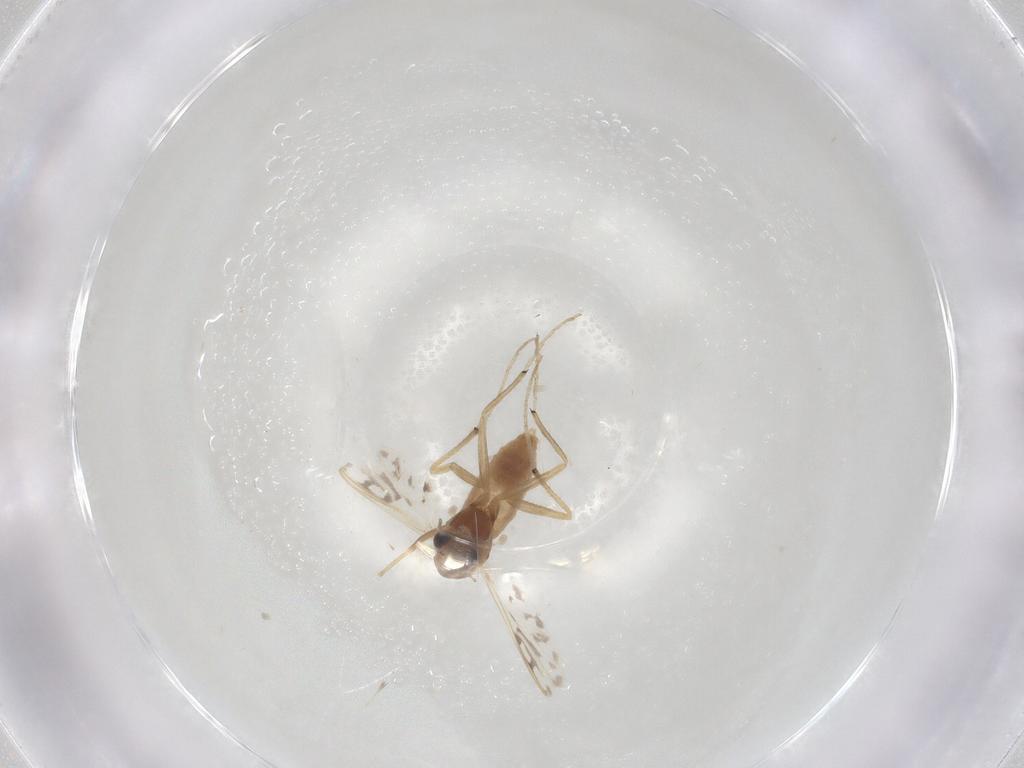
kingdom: Animalia
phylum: Arthropoda
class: Insecta
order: Diptera
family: Chironomidae
